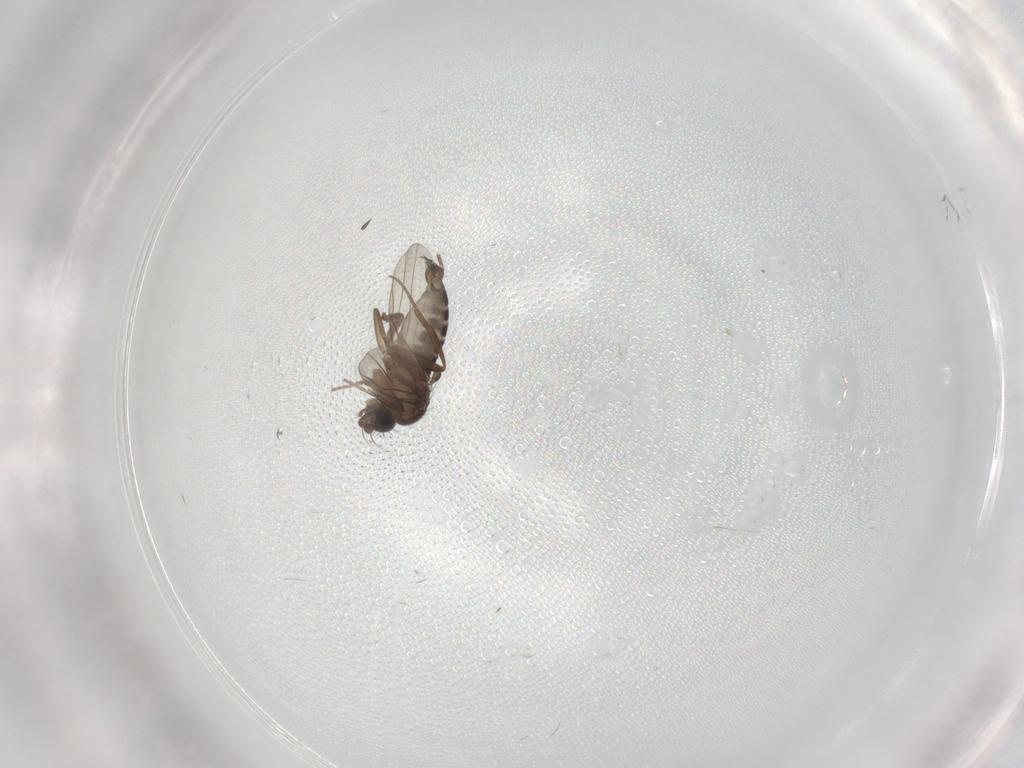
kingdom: Animalia
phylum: Arthropoda
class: Insecta
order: Diptera
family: Phoridae
